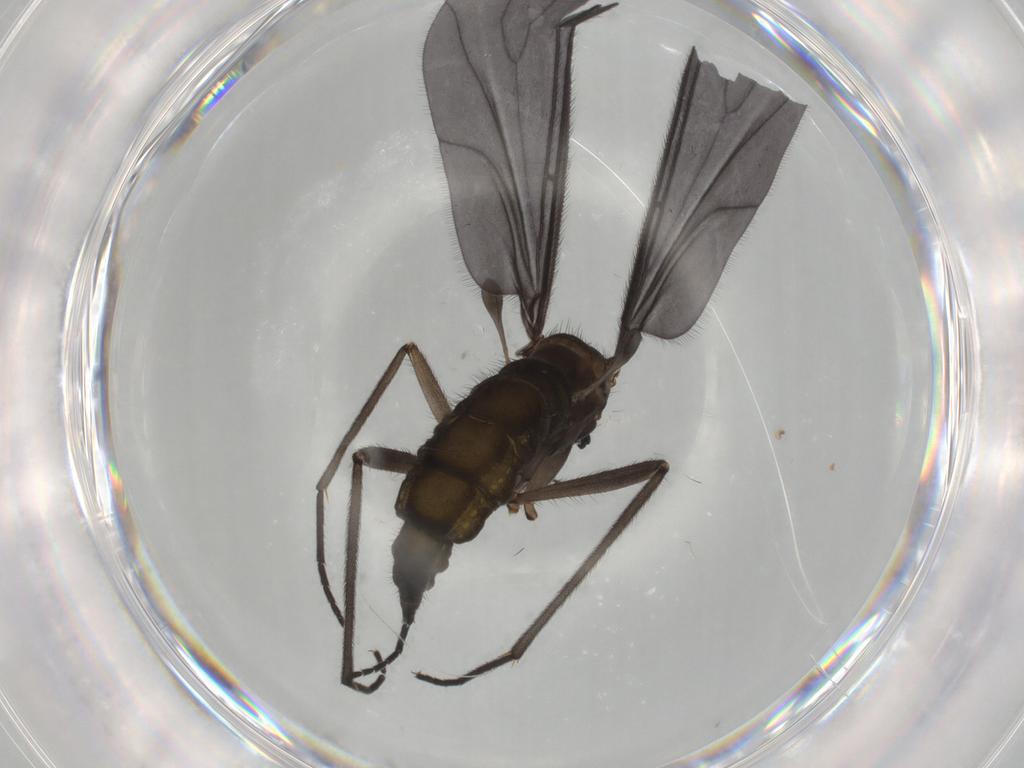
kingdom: Animalia
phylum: Arthropoda
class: Insecta
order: Diptera
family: Sciaridae
